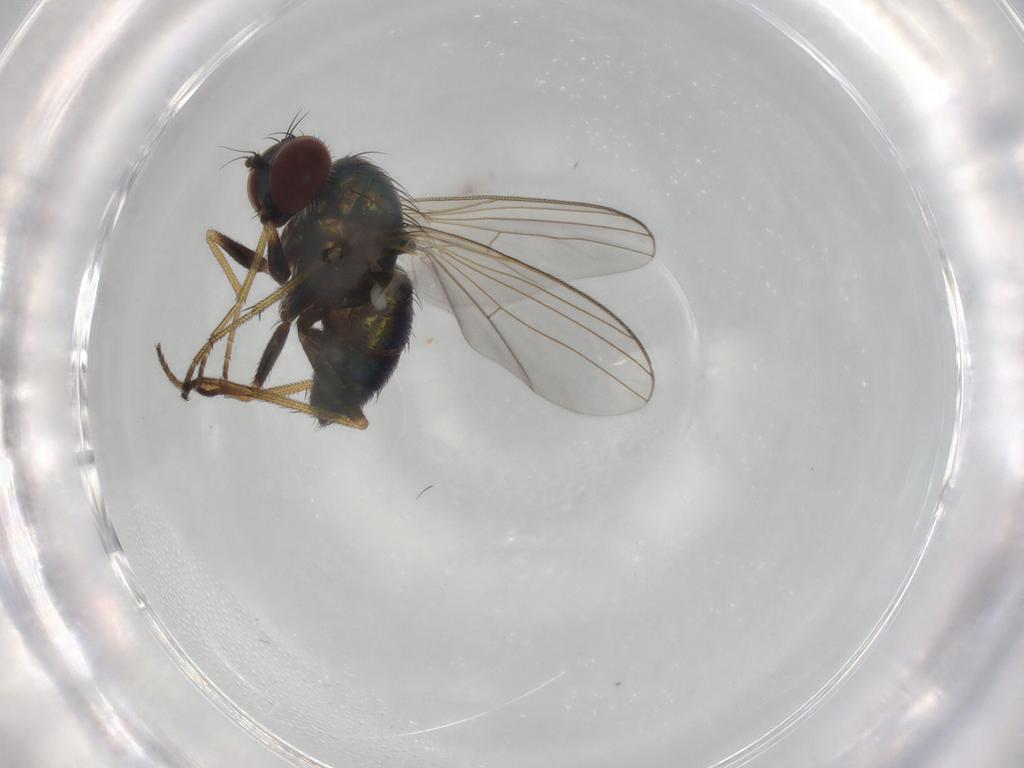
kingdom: Animalia
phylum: Arthropoda
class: Insecta
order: Diptera
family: Dolichopodidae
